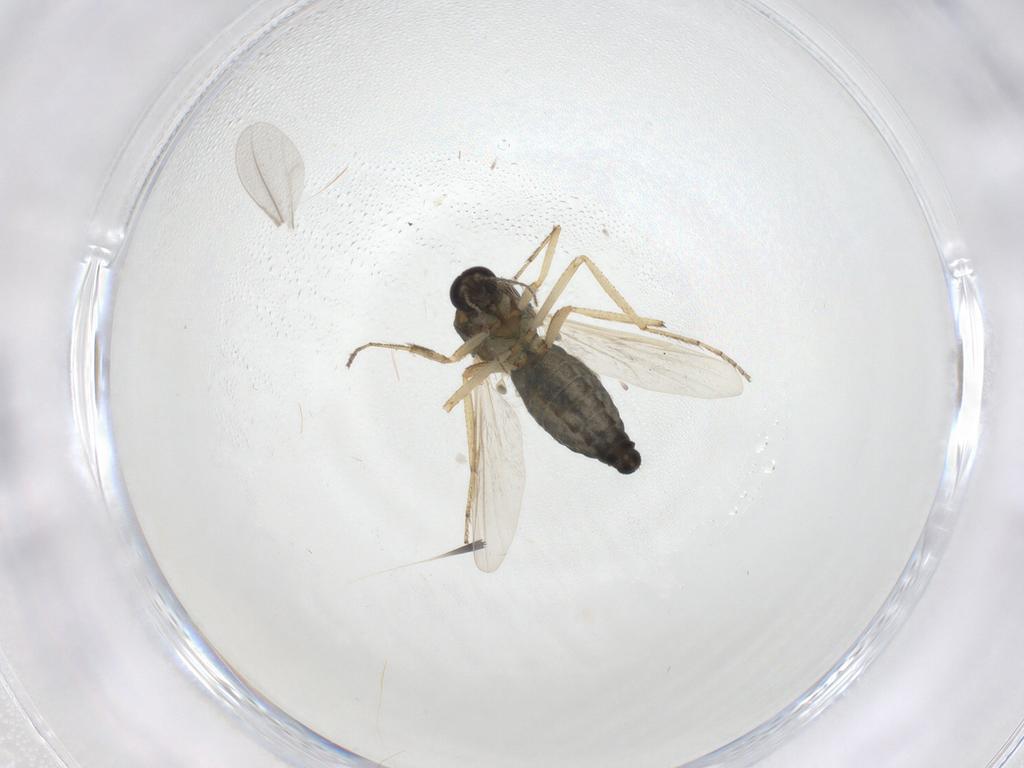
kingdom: Animalia
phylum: Arthropoda
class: Insecta
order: Diptera
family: Ceratopogonidae
